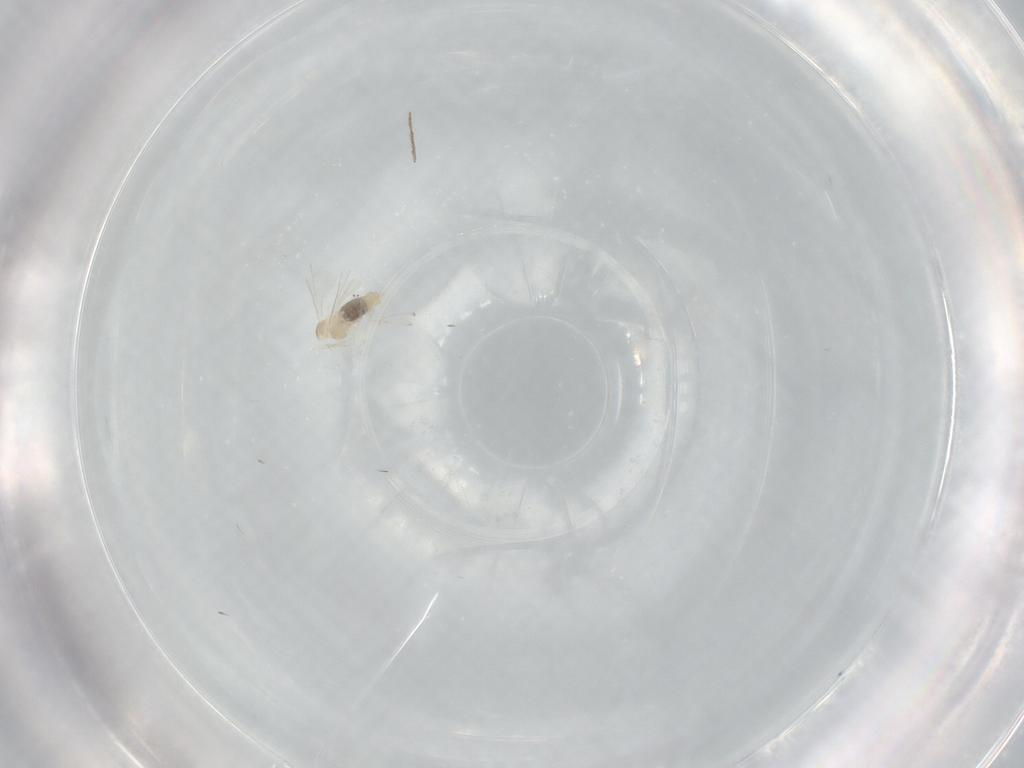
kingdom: Animalia
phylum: Arthropoda
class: Insecta
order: Diptera
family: Cecidomyiidae
